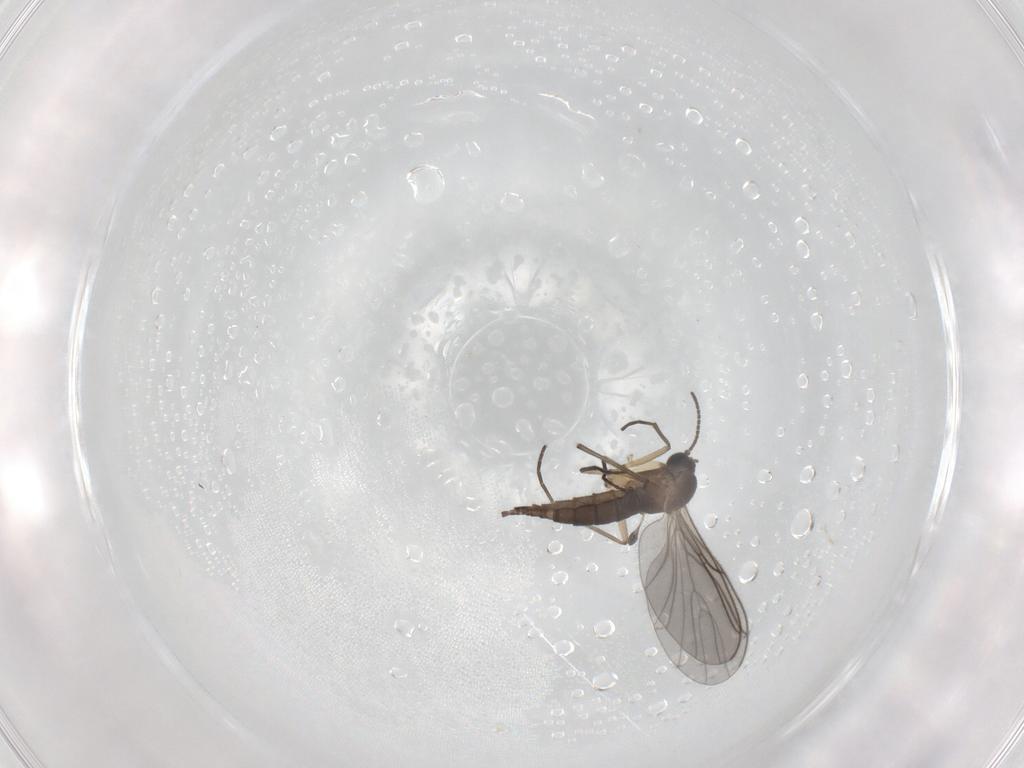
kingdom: Animalia
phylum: Arthropoda
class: Insecta
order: Diptera
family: Sciaridae
